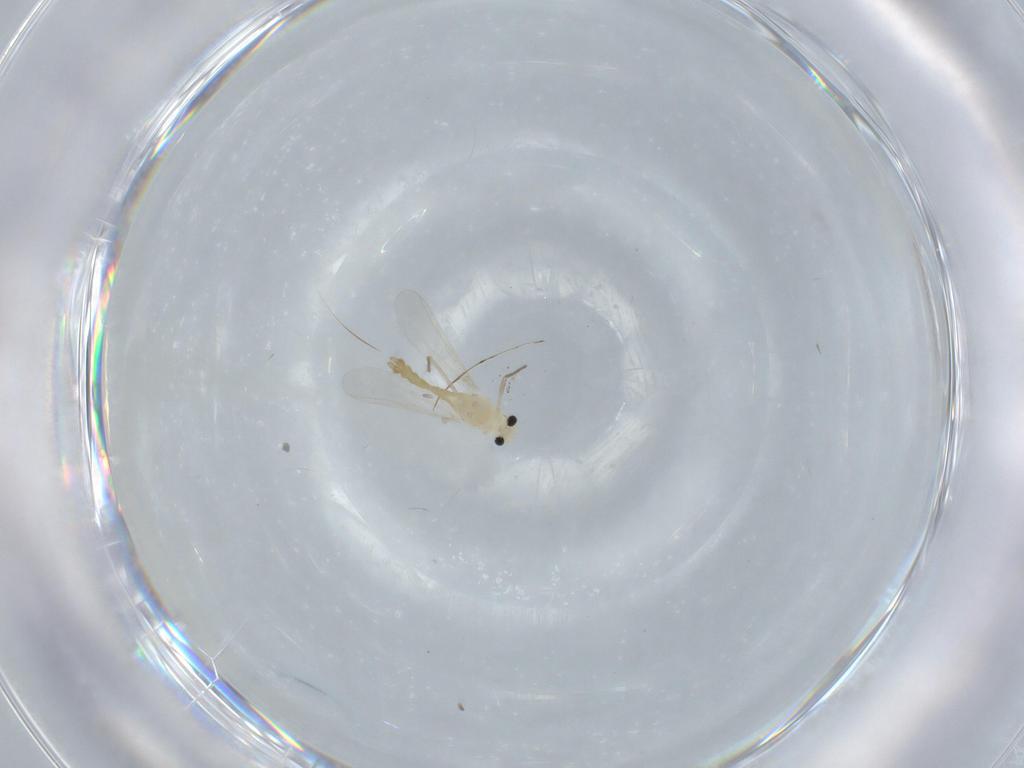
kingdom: Animalia
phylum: Arthropoda
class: Insecta
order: Diptera
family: Chironomidae
